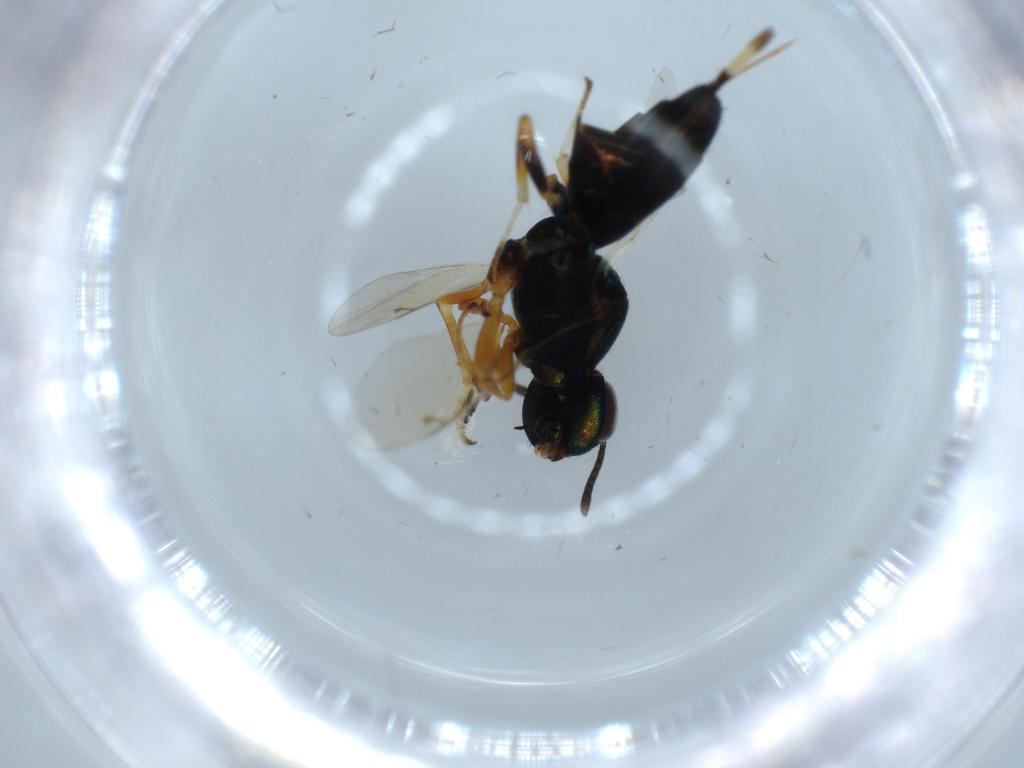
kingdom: Animalia
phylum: Arthropoda
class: Insecta
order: Hymenoptera
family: Eupelmidae
